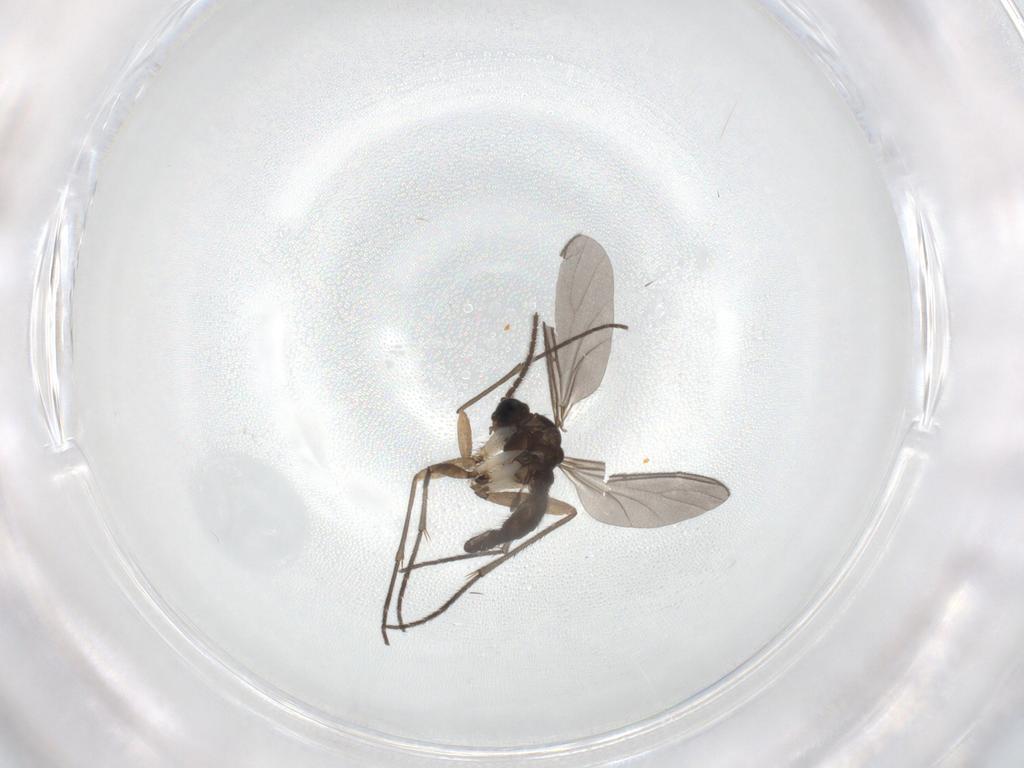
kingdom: Animalia
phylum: Arthropoda
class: Insecta
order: Diptera
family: Sciaridae
